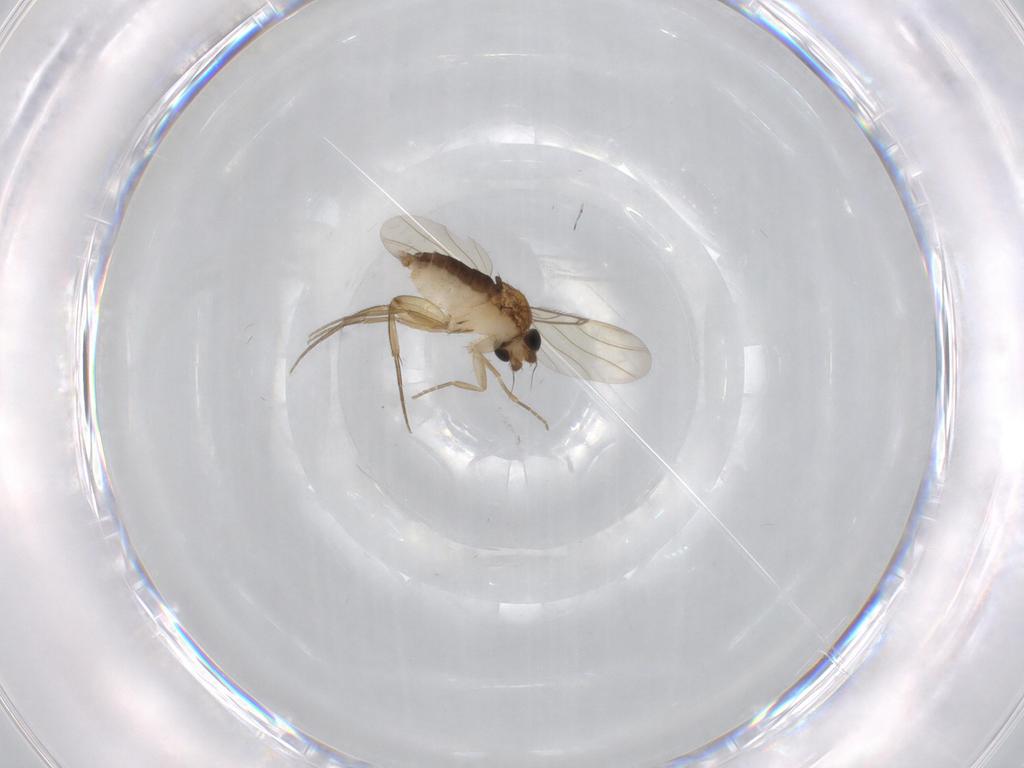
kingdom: Animalia
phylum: Arthropoda
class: Insecta
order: Diptera
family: Phoridae
